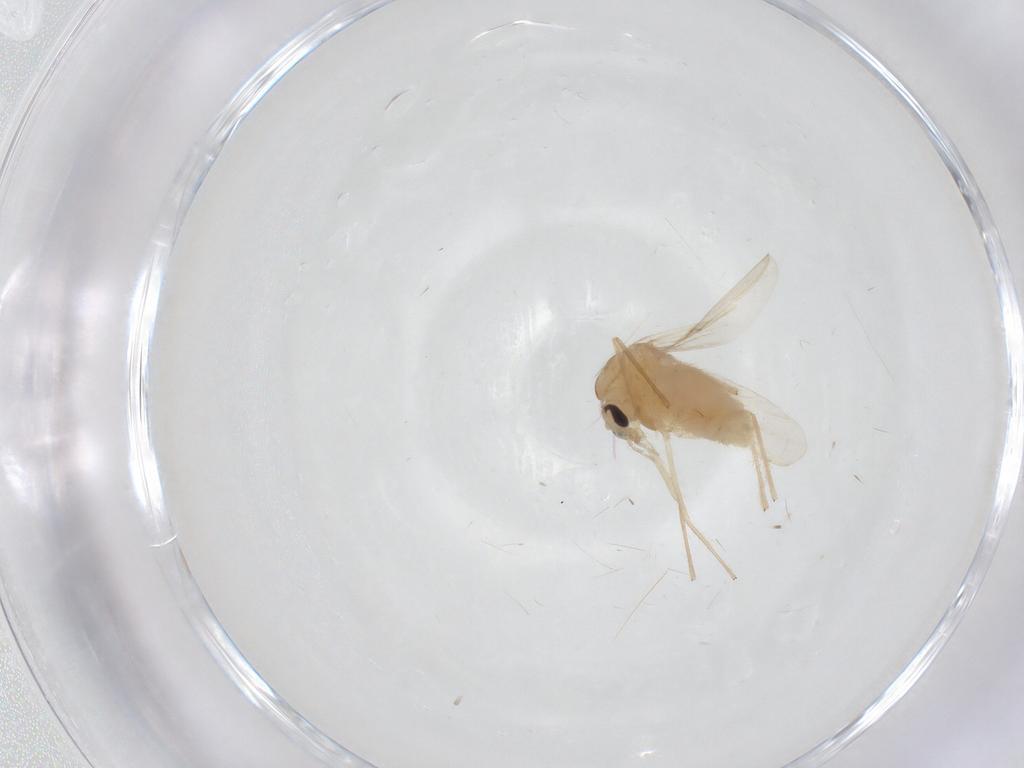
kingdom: Animalia
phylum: Arthropoda
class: Insecta
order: Diptera
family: Chironomidae
